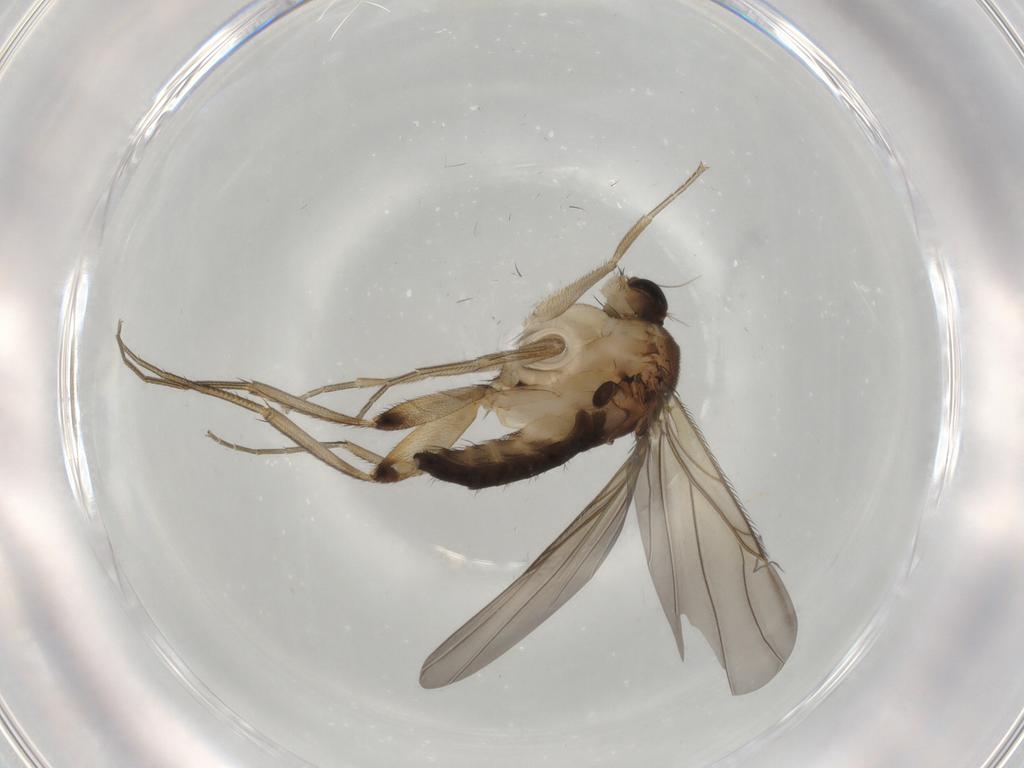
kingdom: Animalia
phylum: Arthropoda
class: Insecta
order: Diptera
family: Phoridae
